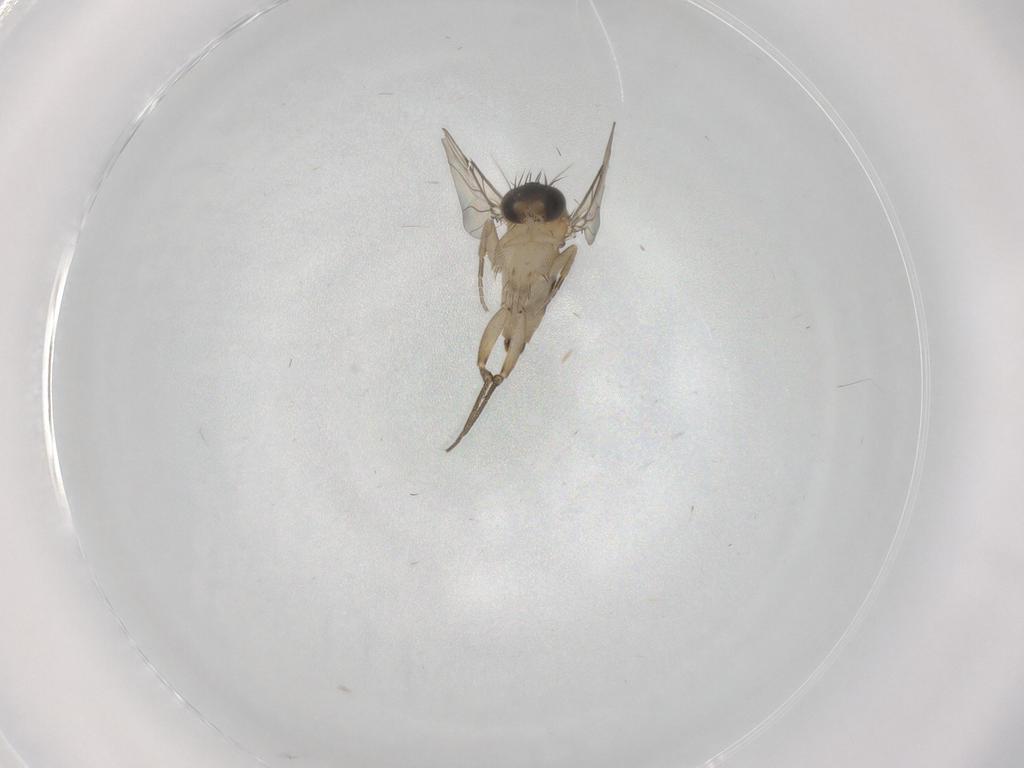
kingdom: Animalia
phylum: Arthropoda
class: Insecta
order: Diptera
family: Phoridae
